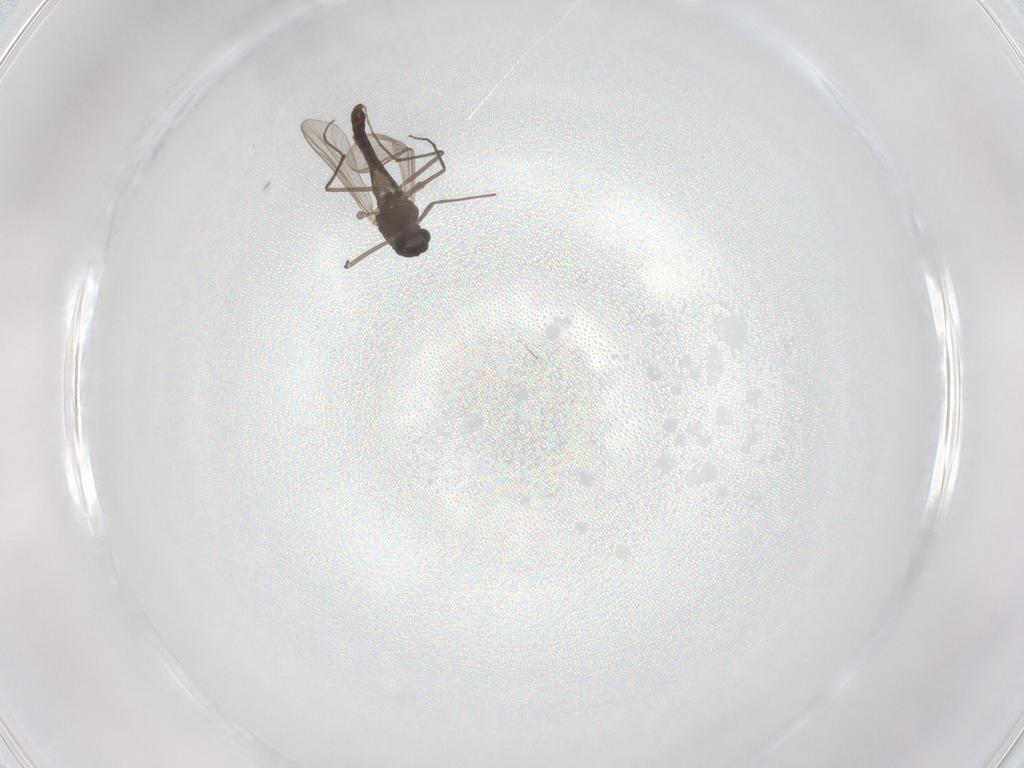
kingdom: Animalia
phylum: Arthropoda
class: Insecta
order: Diptera
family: Chironomidae
